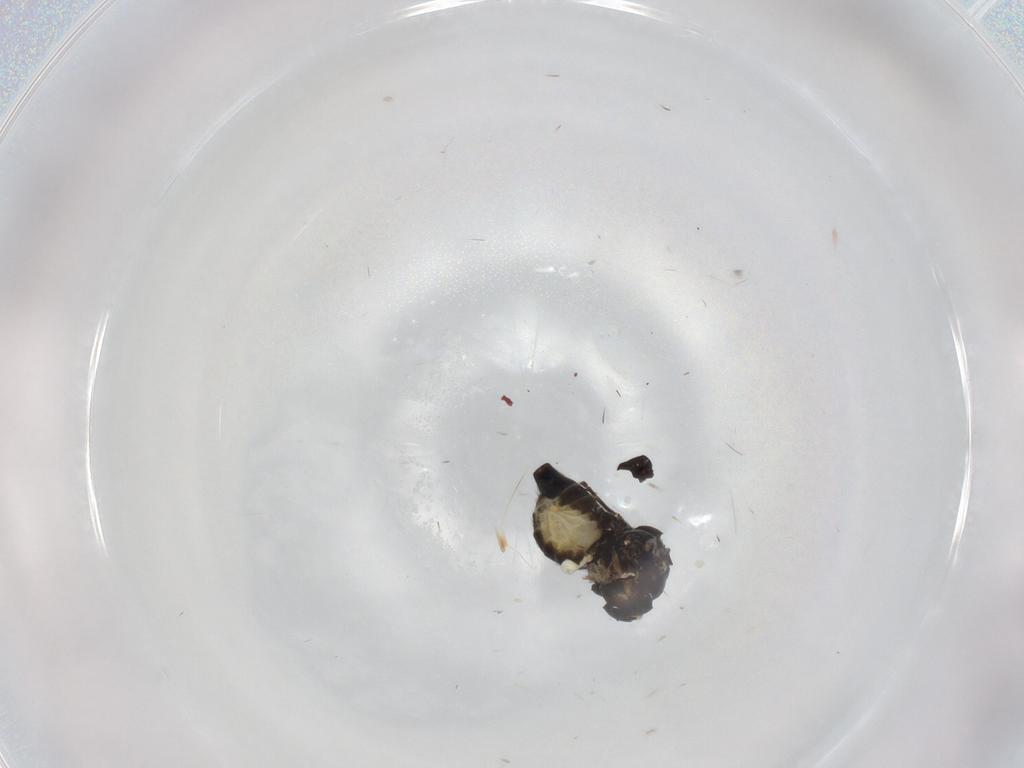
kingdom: Animalia
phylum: Arthropoda
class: Insecta
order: Diptera
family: Agromyzidae
